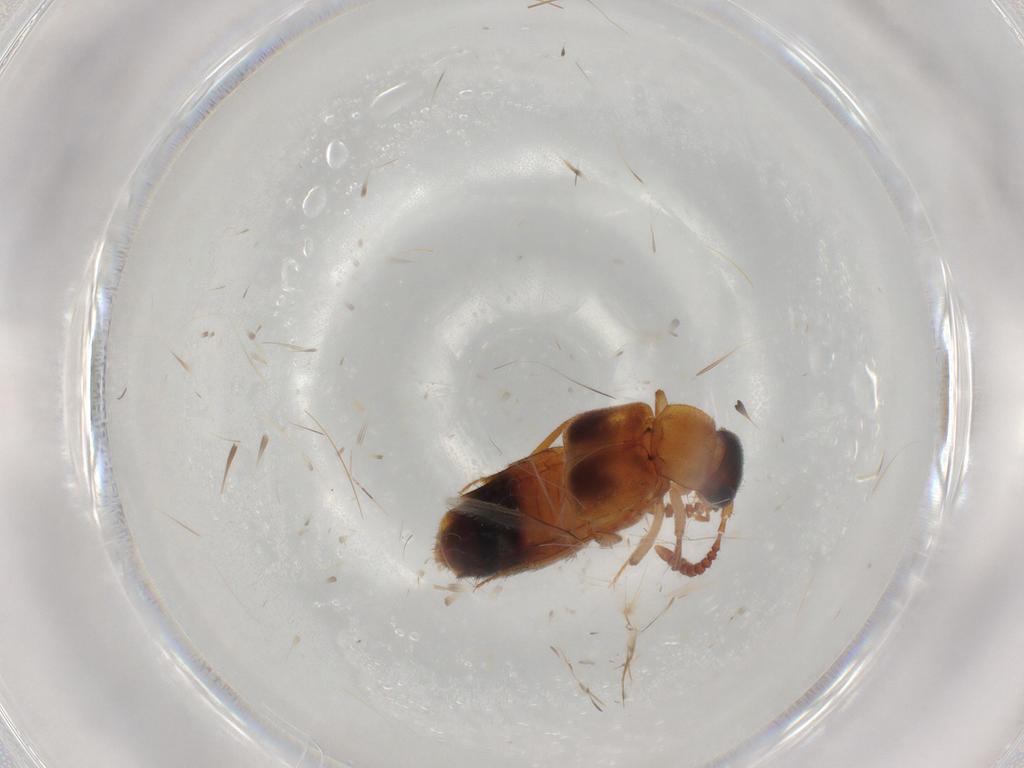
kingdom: Animalia
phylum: Arthropoda
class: Insecta
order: Coleoptera
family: Staphylinidae
